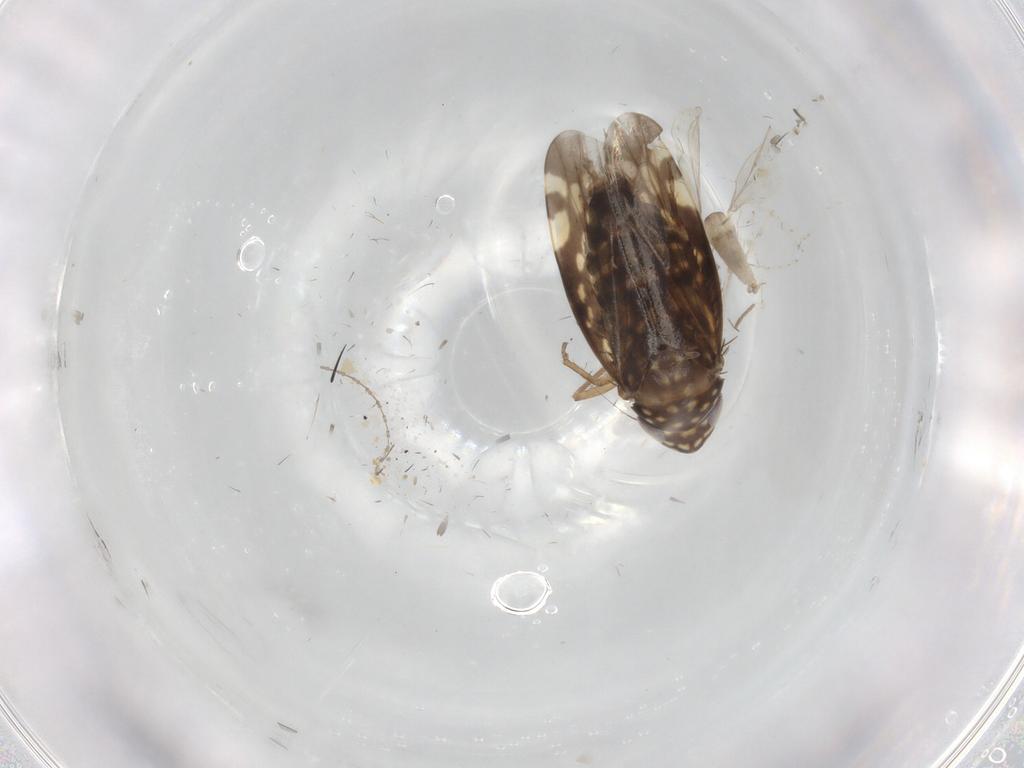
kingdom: Animalia
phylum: Arthropoda
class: Insecta
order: Hemiptera
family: Cicadellidae
